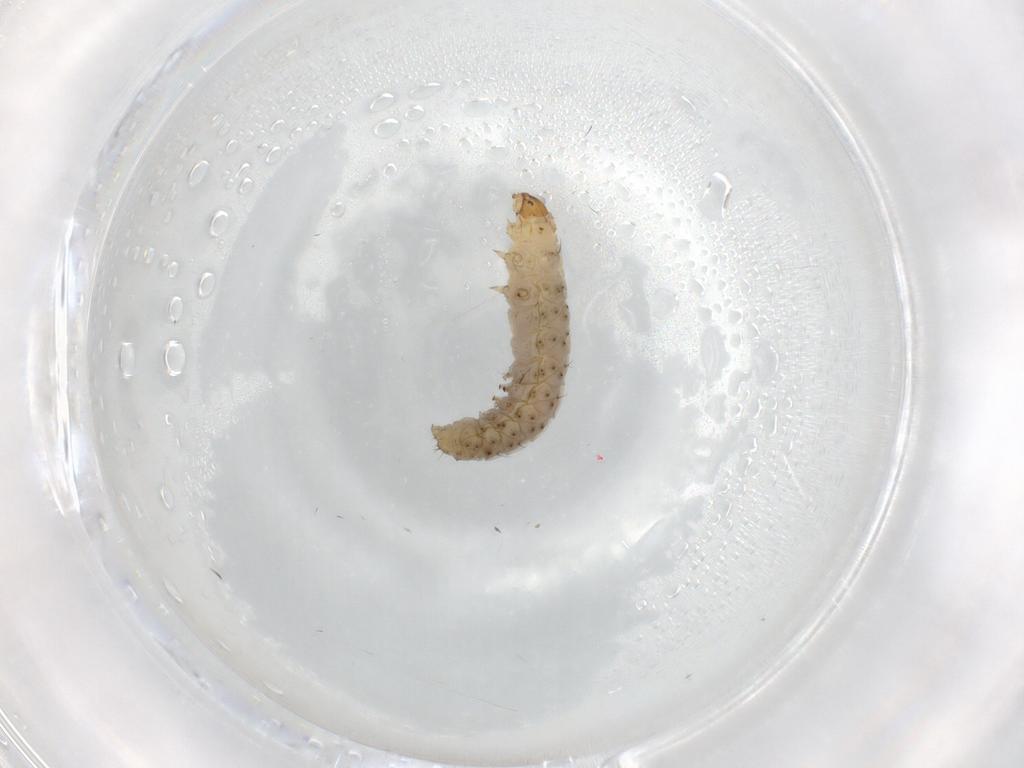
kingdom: Animalia
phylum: Arthropoda
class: Insecta
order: Lepidoptera
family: Epermeniidae
